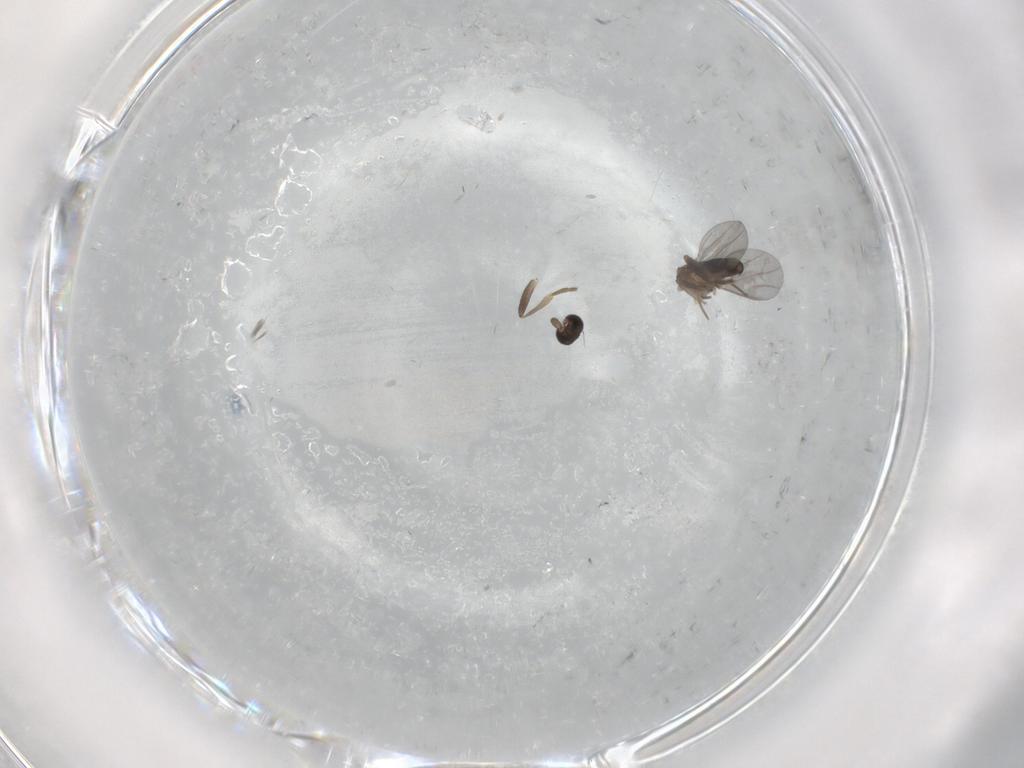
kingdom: Animalia
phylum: Arthropoda
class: Insecta
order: Diptera
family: Phoridae
